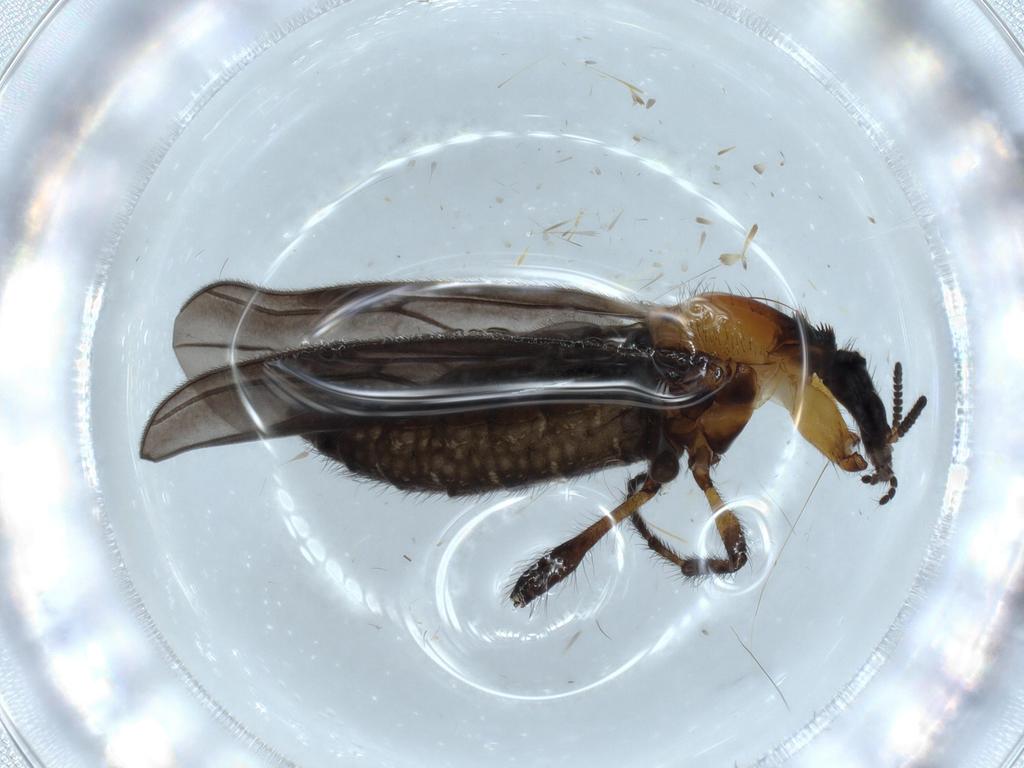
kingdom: Animalia
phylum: Arthropoda
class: Insecta
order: Diptera
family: Bibionidae
